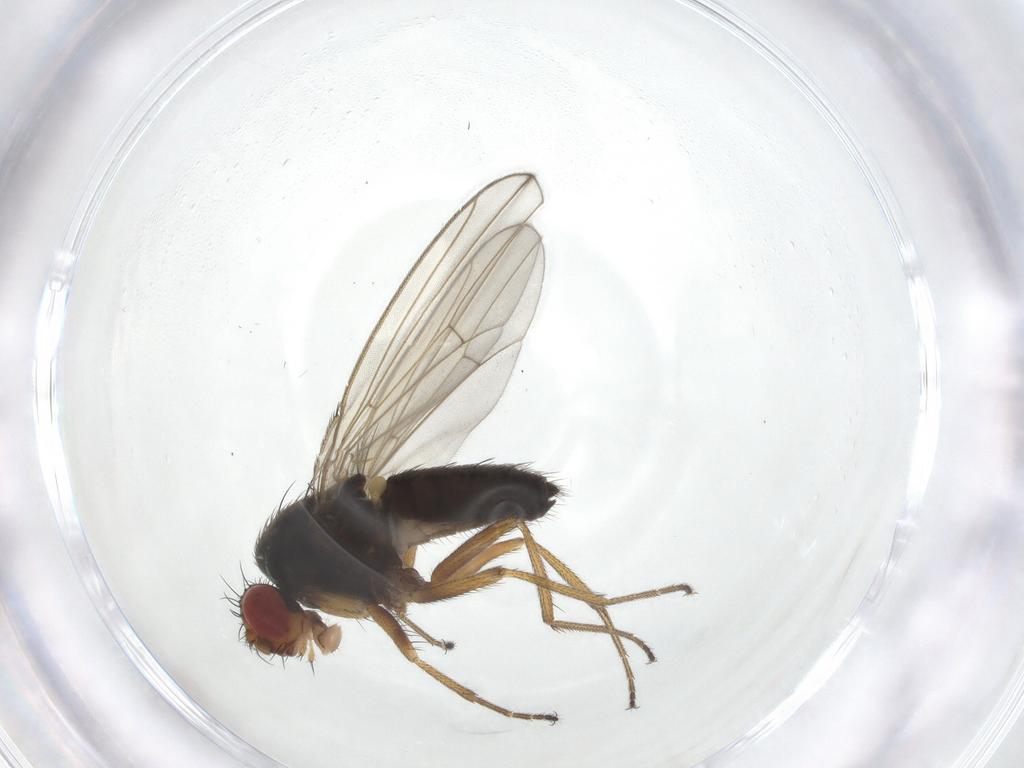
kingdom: Animalia
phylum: Arthropoda
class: Insecta
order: Diptera
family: Drosophilidae
